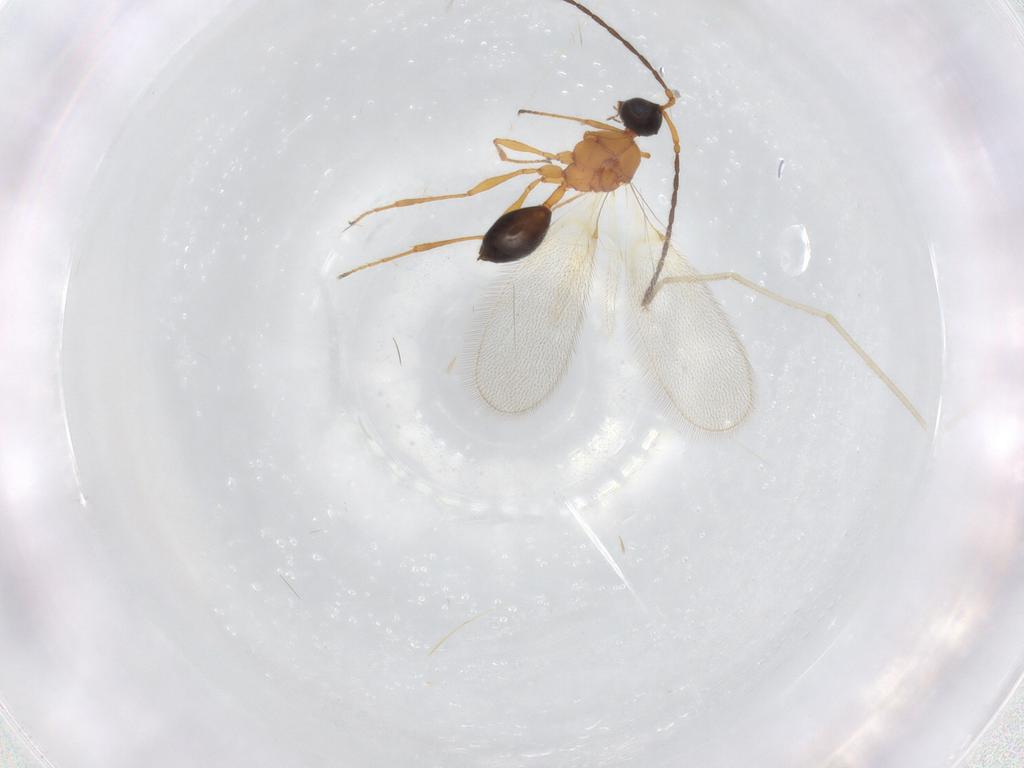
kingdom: Animalia
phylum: Arthropoda
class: Insecta
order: Hymenoptera
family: Diapriidae
